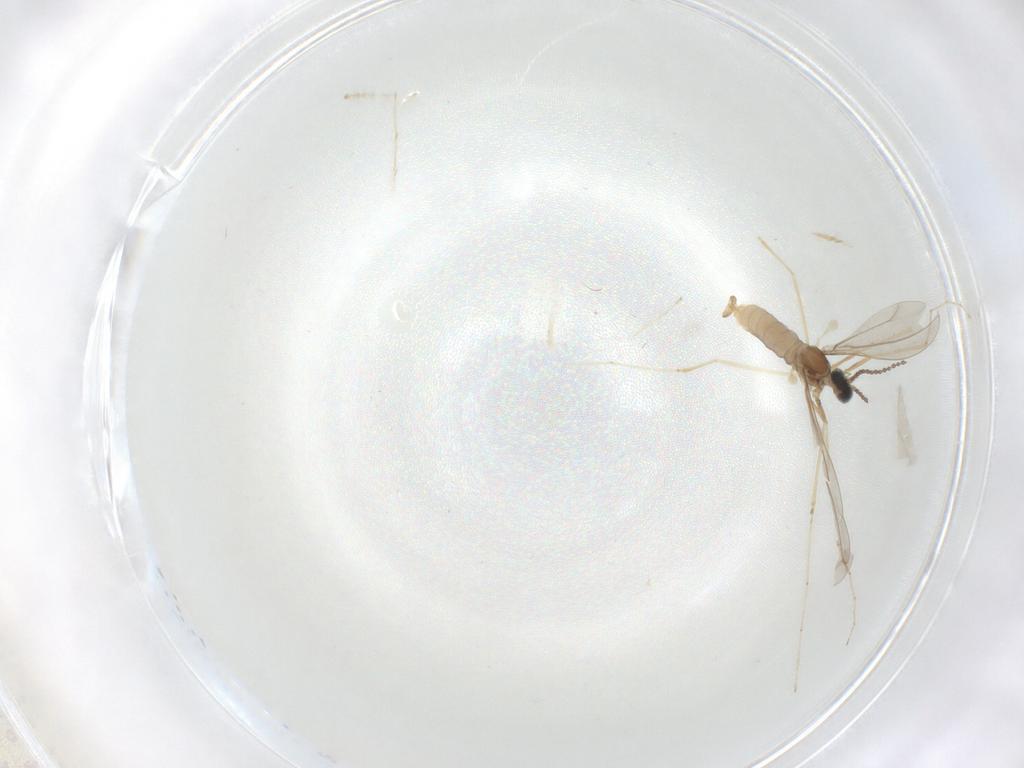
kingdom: Animalia
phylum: Arthropoda
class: Insecta
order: Diptera
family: Cecidomyiidae
